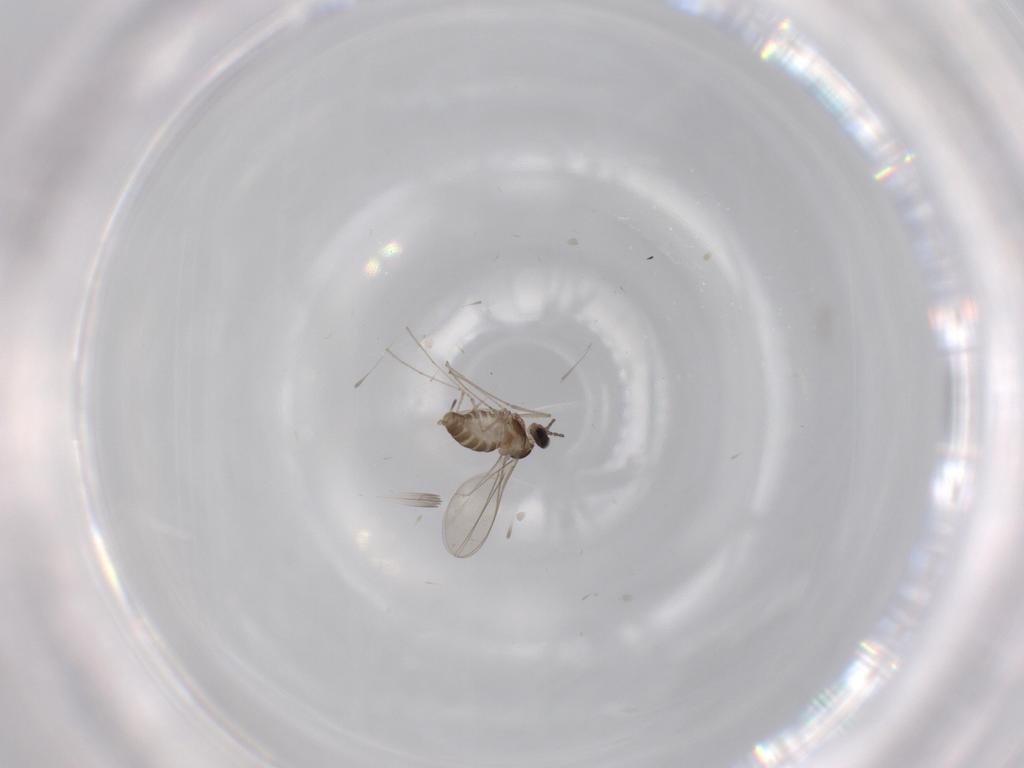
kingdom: Animalia
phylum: Arthropoda
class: Insecta
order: Diptera
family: Cecidomyiidae
